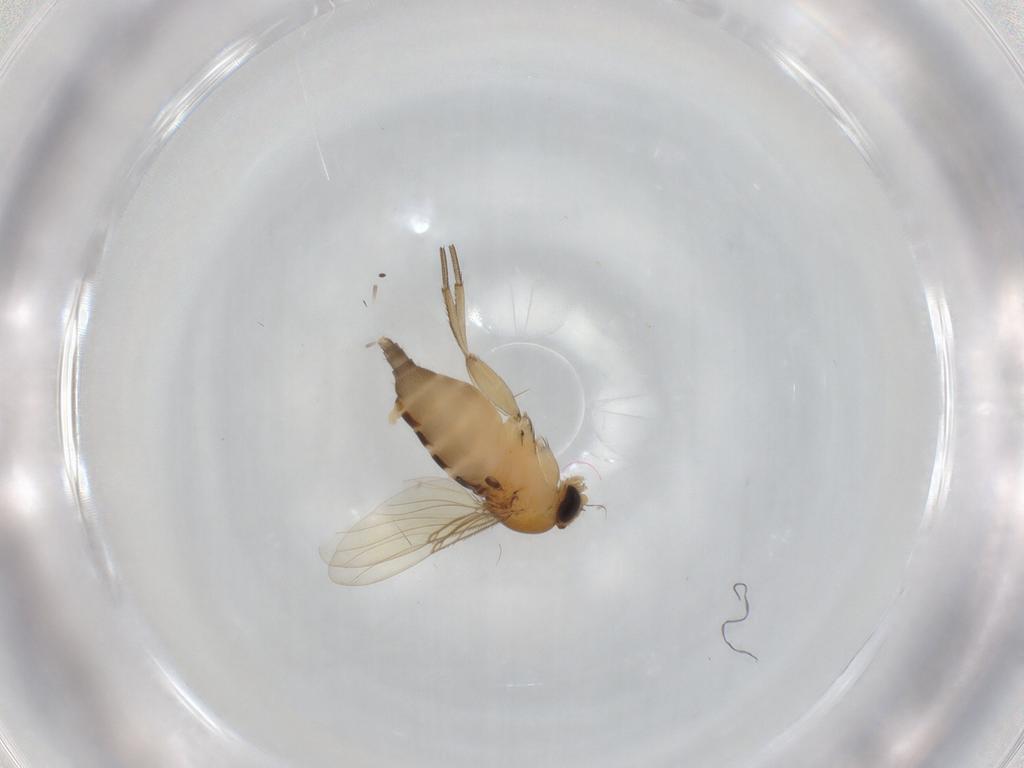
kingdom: Animalia
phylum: Arthropoda
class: Insecta
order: Diptera
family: Phoridae
